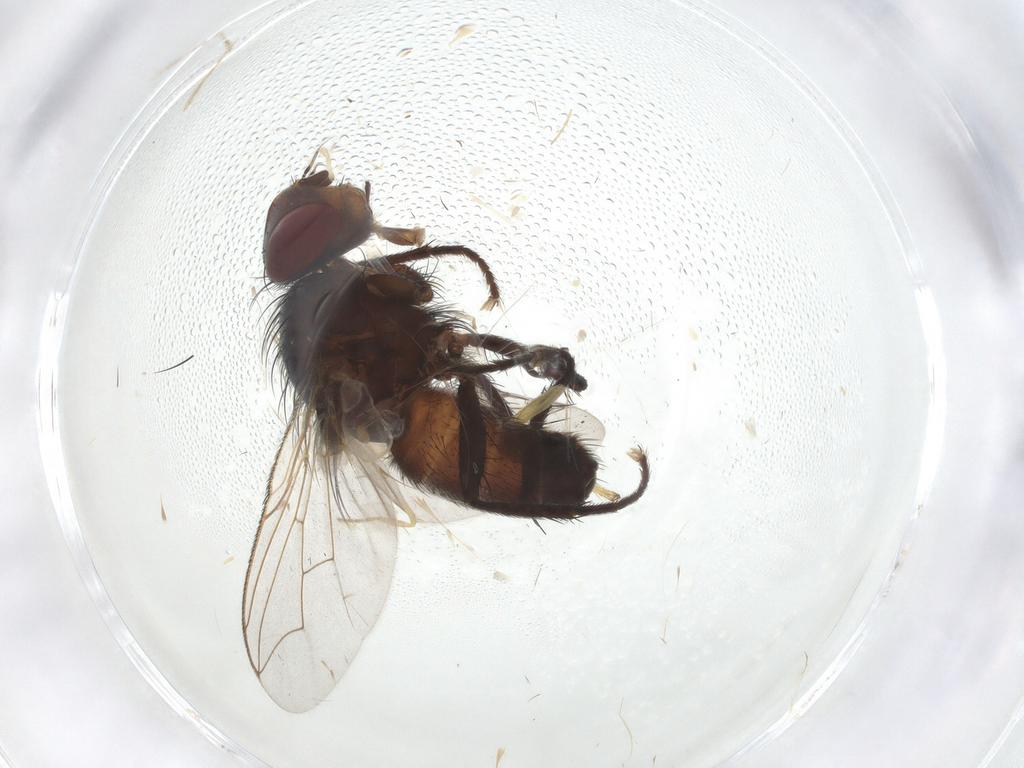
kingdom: Animalia
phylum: Arthropoda
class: Insecta
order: Diptera
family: Sarcophagidae
